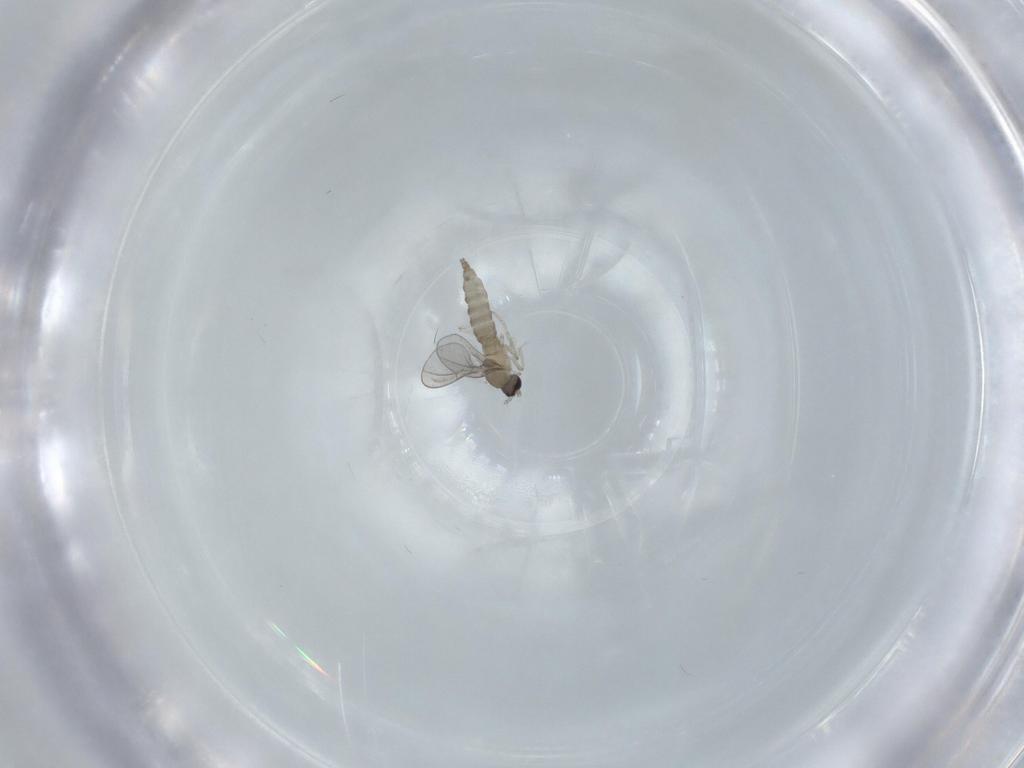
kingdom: Animalia
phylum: Arthropoda
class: Insecta
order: Diptera
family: Cecidomyiidae
